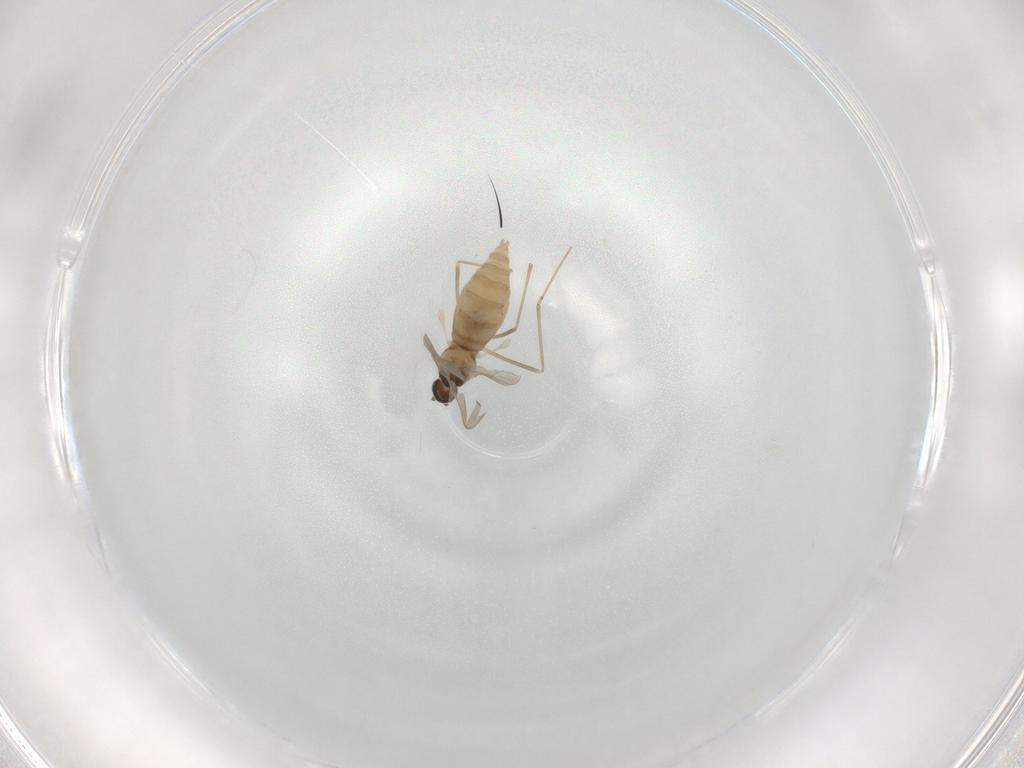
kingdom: Animalia
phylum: Arthropoda
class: Insecta
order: Diptera
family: Cecidomyiidae
